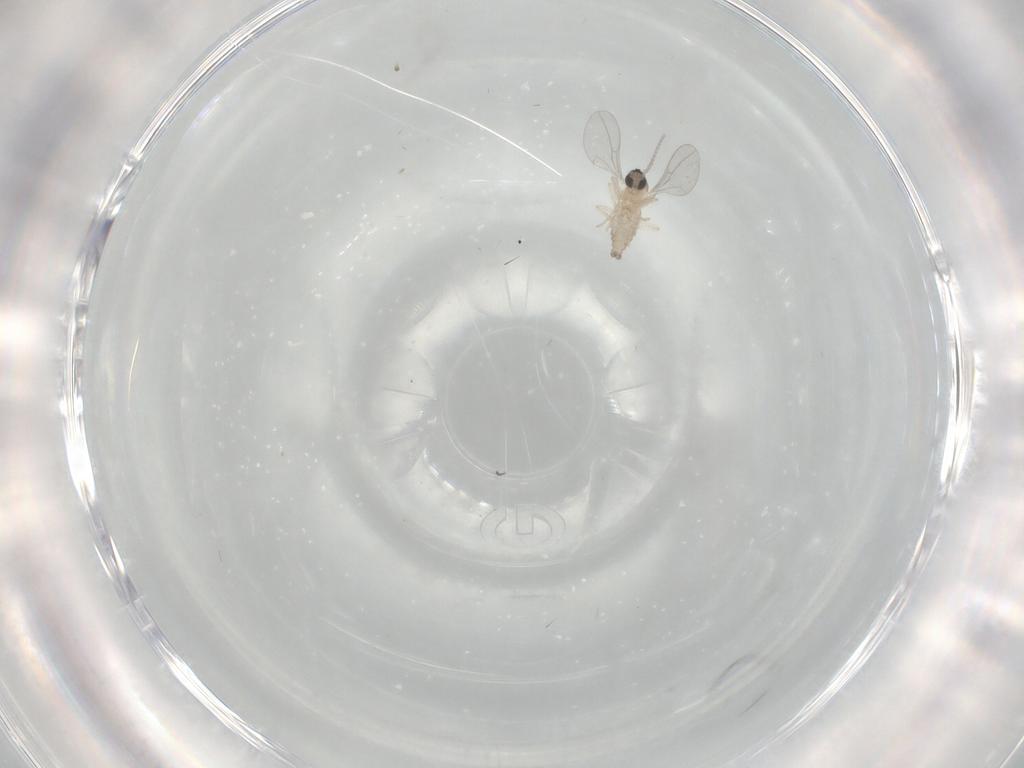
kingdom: Animalia
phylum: Arthropoda
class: Insecta
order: Diptera
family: Cecidomyiidae
